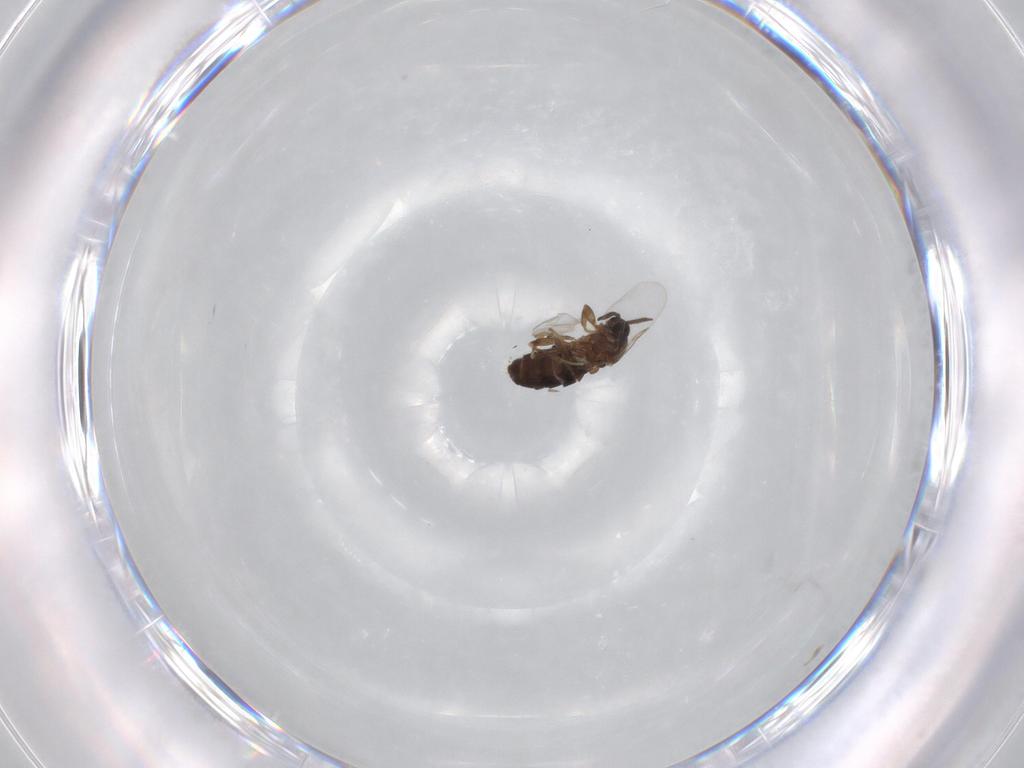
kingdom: Animalia
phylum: Arthropoda
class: Insecta
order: Diptera
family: Scatopsidae
